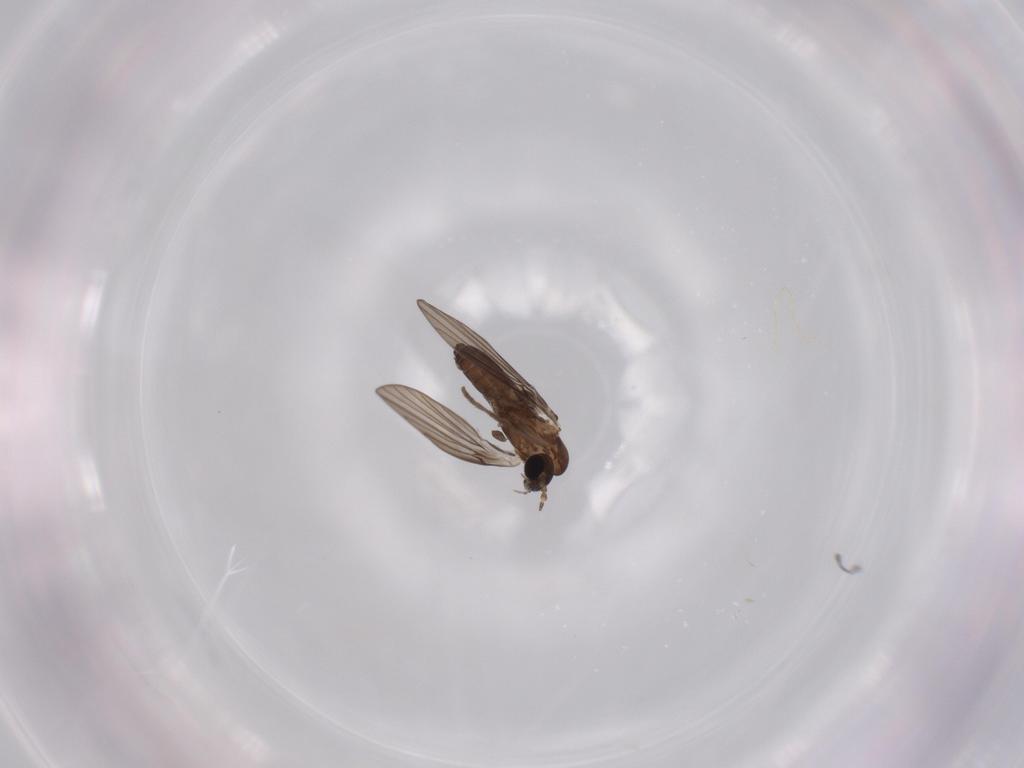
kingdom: Animalia
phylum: Arthropoda
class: Insecta
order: Diptera
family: Psychodidae
